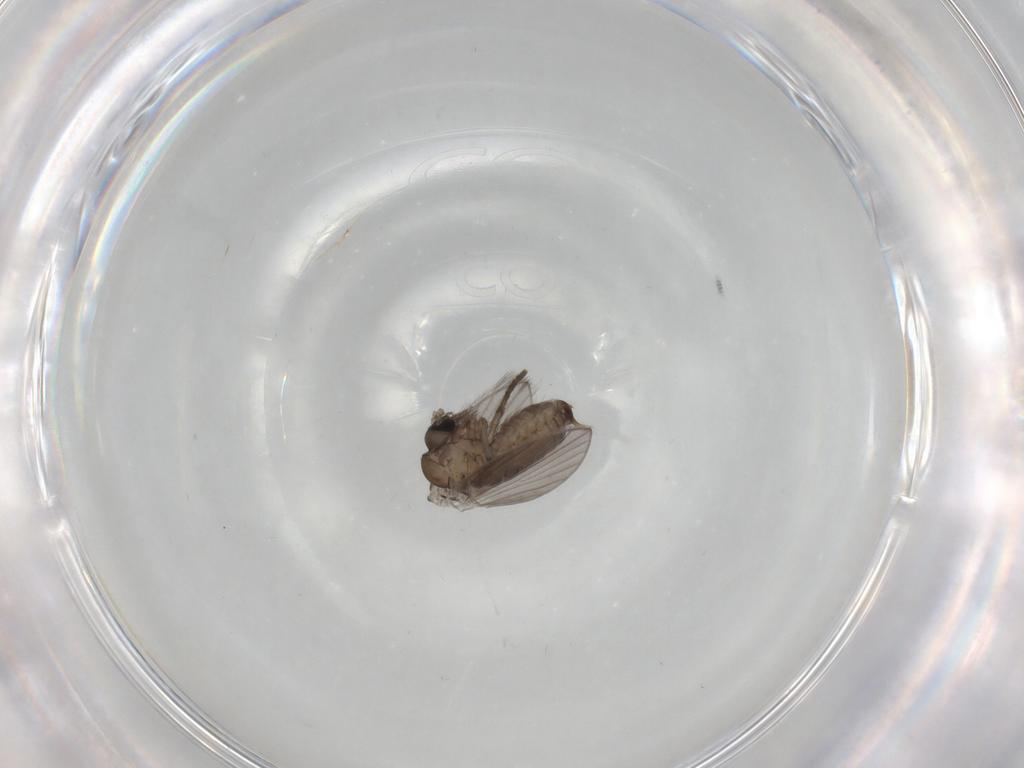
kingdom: Animalia
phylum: Arthropoda
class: Insecta
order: Diptera
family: Psychodidae
